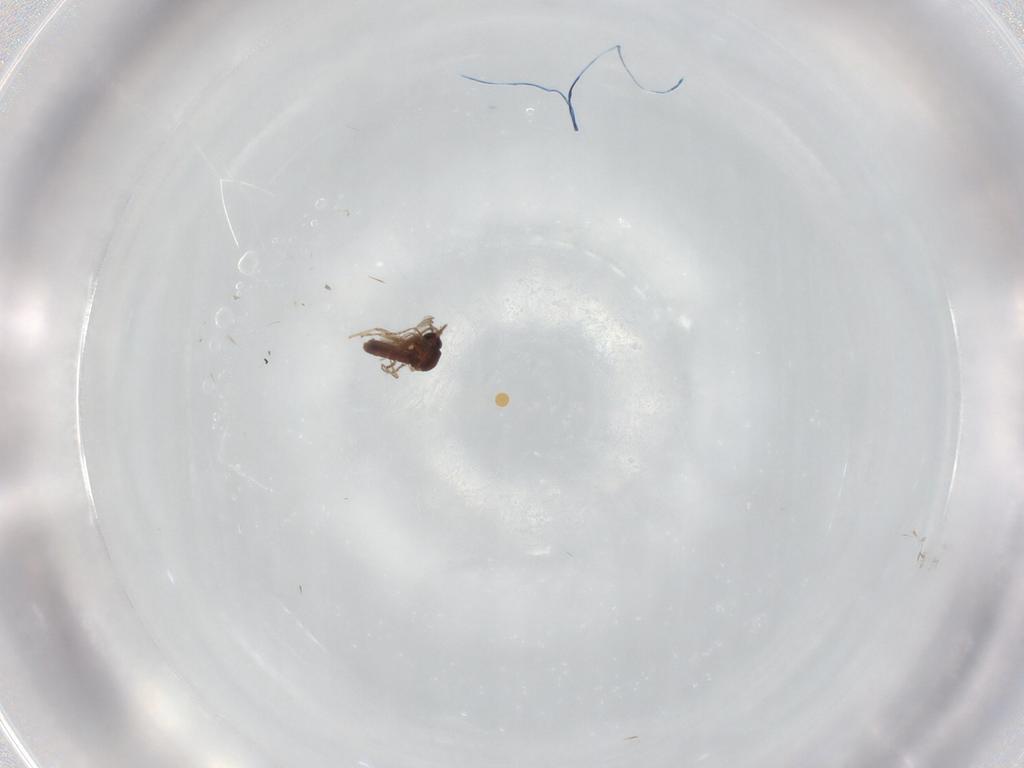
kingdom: Animalia
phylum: Arthropoda
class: Insecta
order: Diptera
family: Ceratopogonidae
